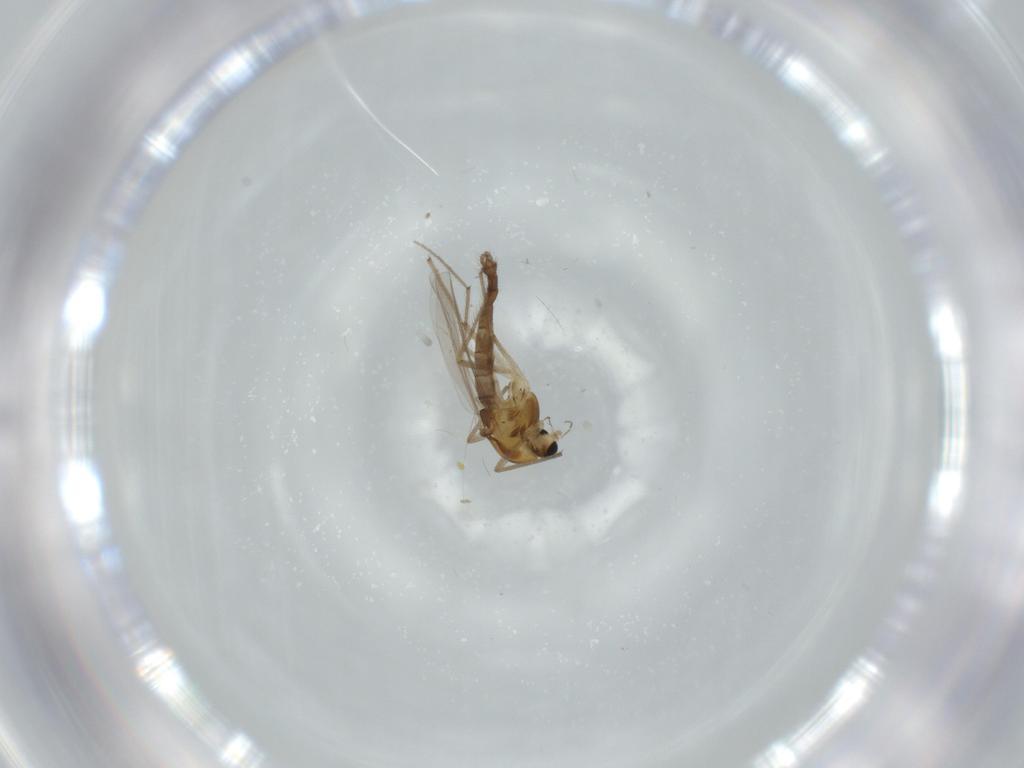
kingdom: Animalia
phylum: Arthropoda
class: Insecta
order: Diptera
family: Chironomidae
